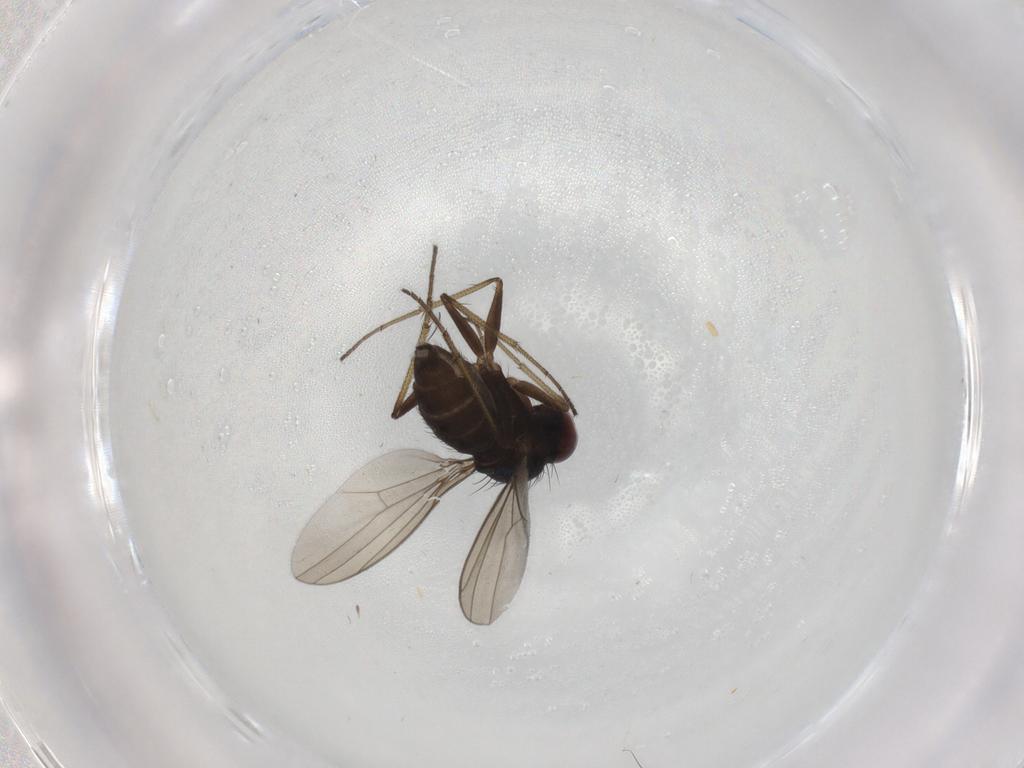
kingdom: Animalia
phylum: Arthropoda
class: Insecta
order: Diptera
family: Dolichopodidae
